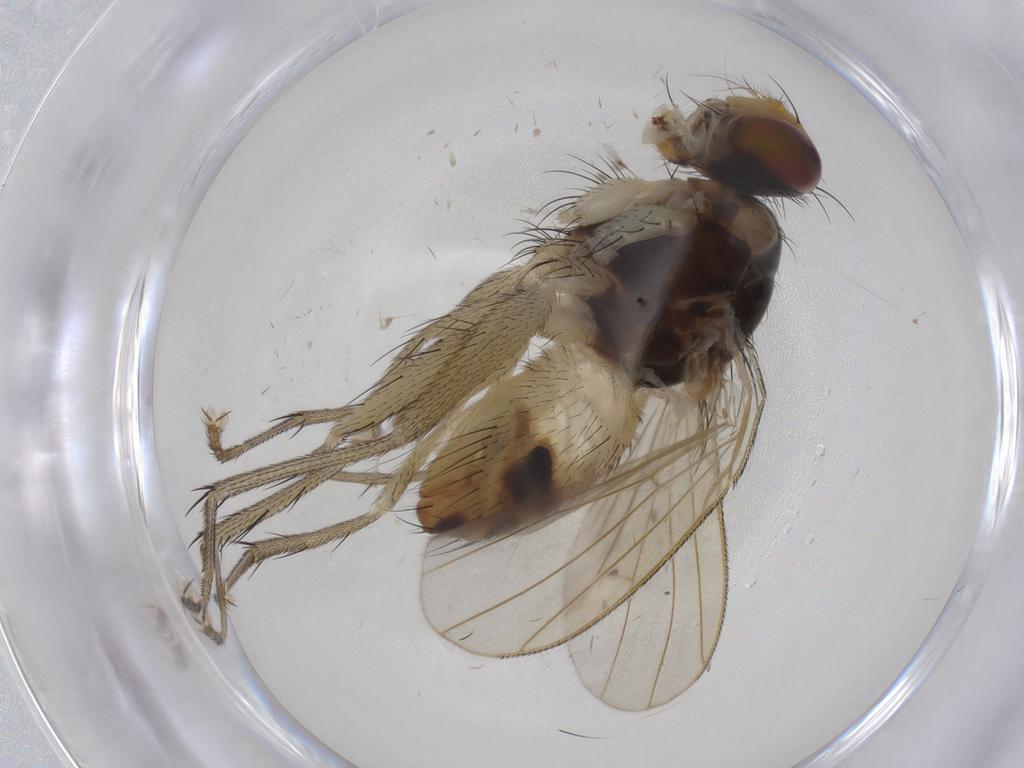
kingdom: Animalia
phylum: Arthropoda
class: Insecta
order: Diptera
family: Muscidae
